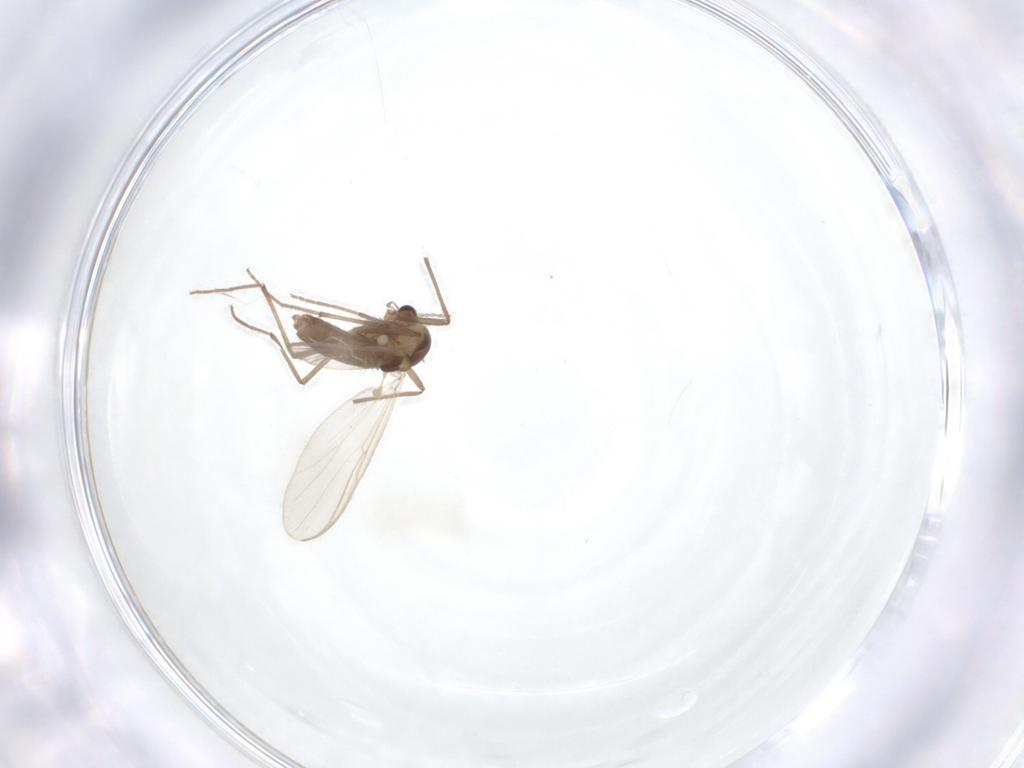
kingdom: Animalia
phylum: Arthropoda
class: Insecta
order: Diptera
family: Chironomidae
